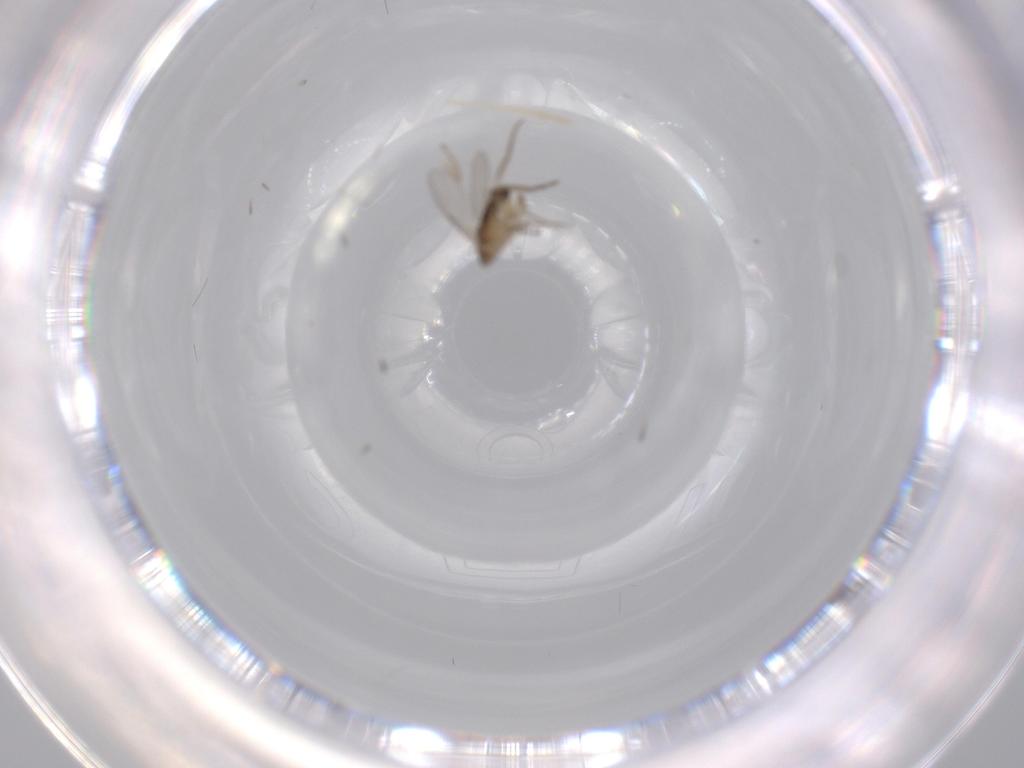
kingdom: Animalia
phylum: Arthropoda
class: Insecta
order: Diptera
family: Phoridae
